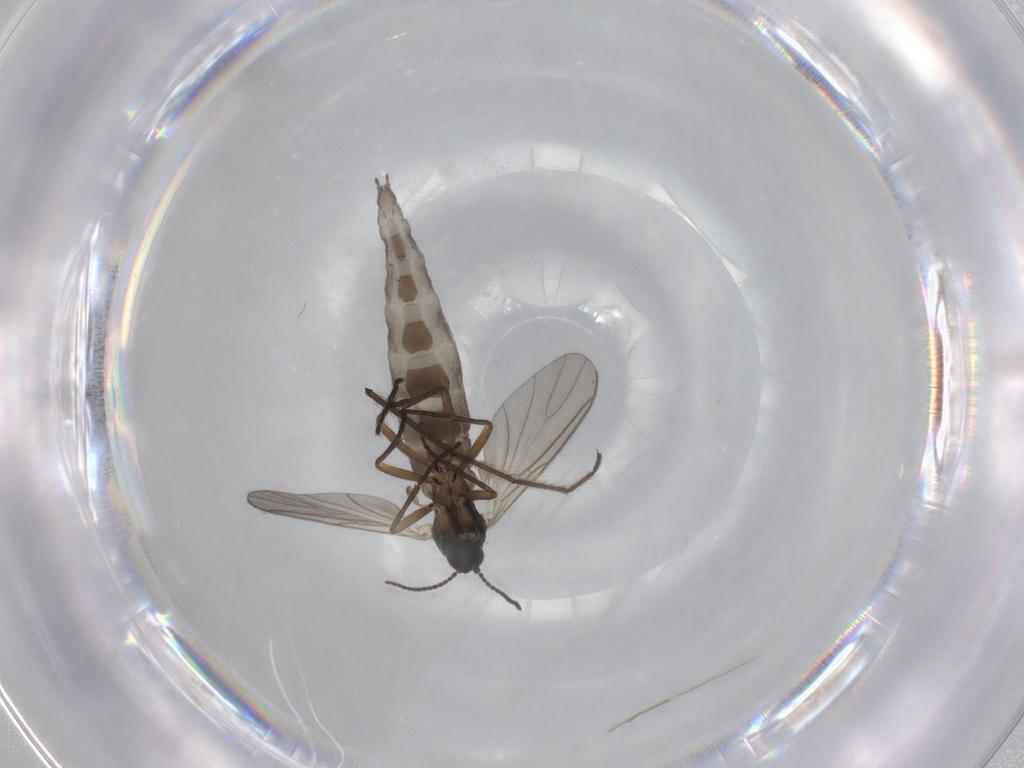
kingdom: Animalia
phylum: Arthropoda
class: Insecta
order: Diptera
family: Sciaridae
